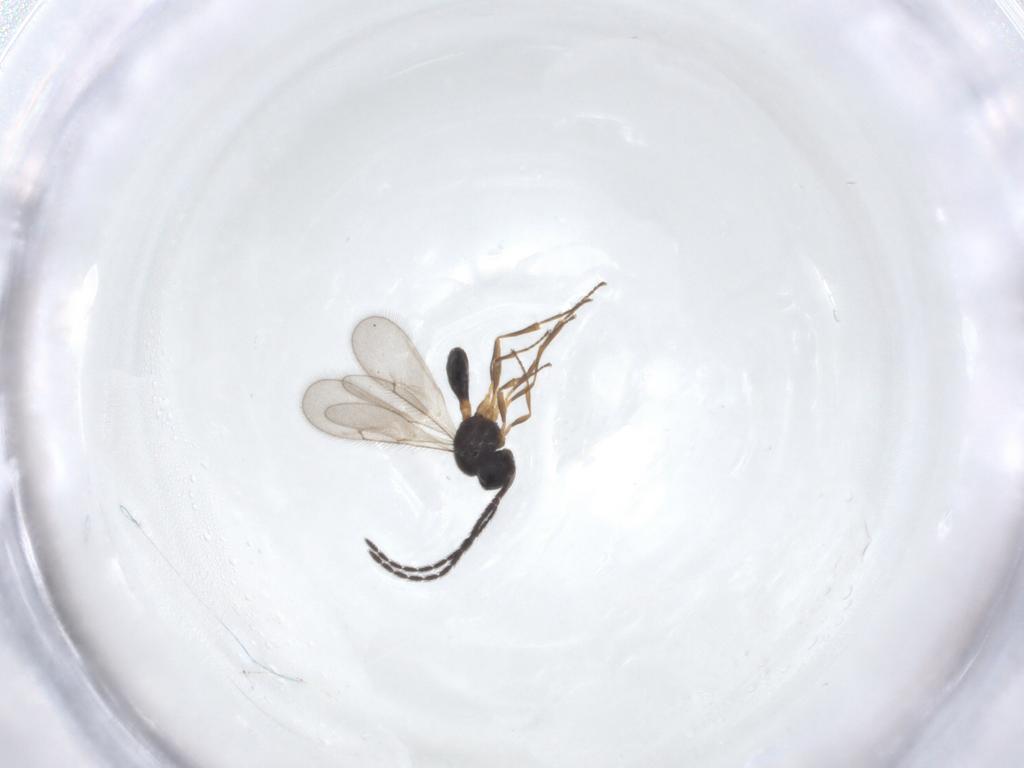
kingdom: Animalia
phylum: Arthropoda
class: Insecta
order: Hymenoptera
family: Scelionidae
